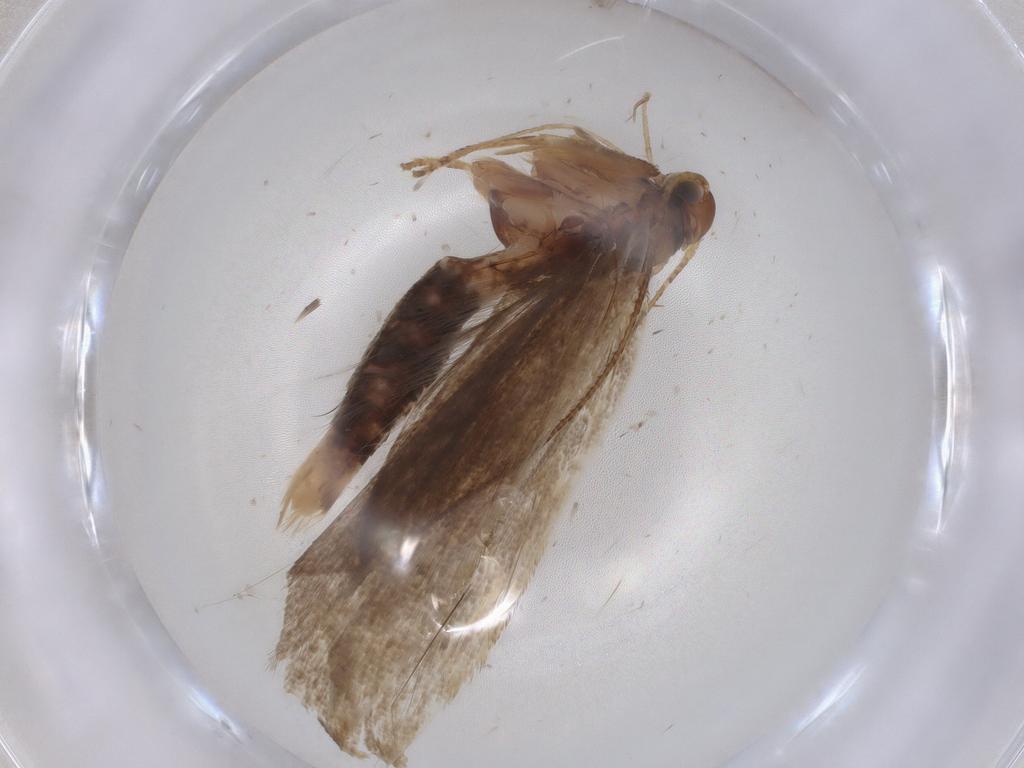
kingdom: Animalia
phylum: Arthropoda
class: Insecta
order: Lepidoptera
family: Gelechiidae
